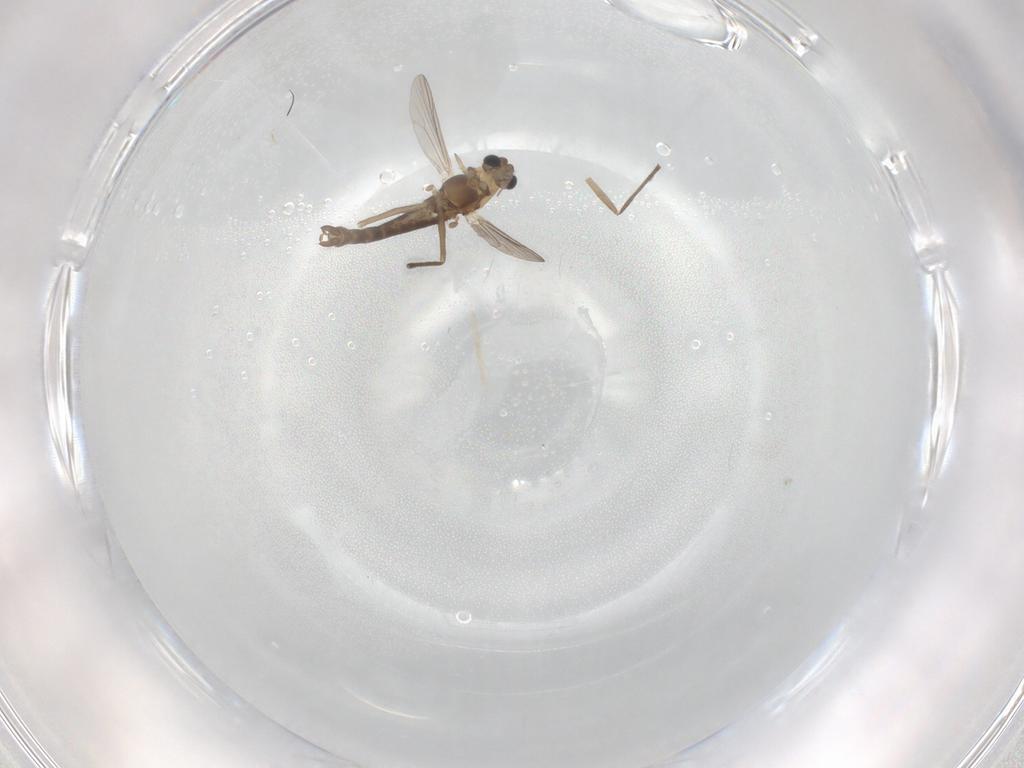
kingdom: Animalia
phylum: Arthropoda
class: Insecta
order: Diptera
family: Chironomidae
